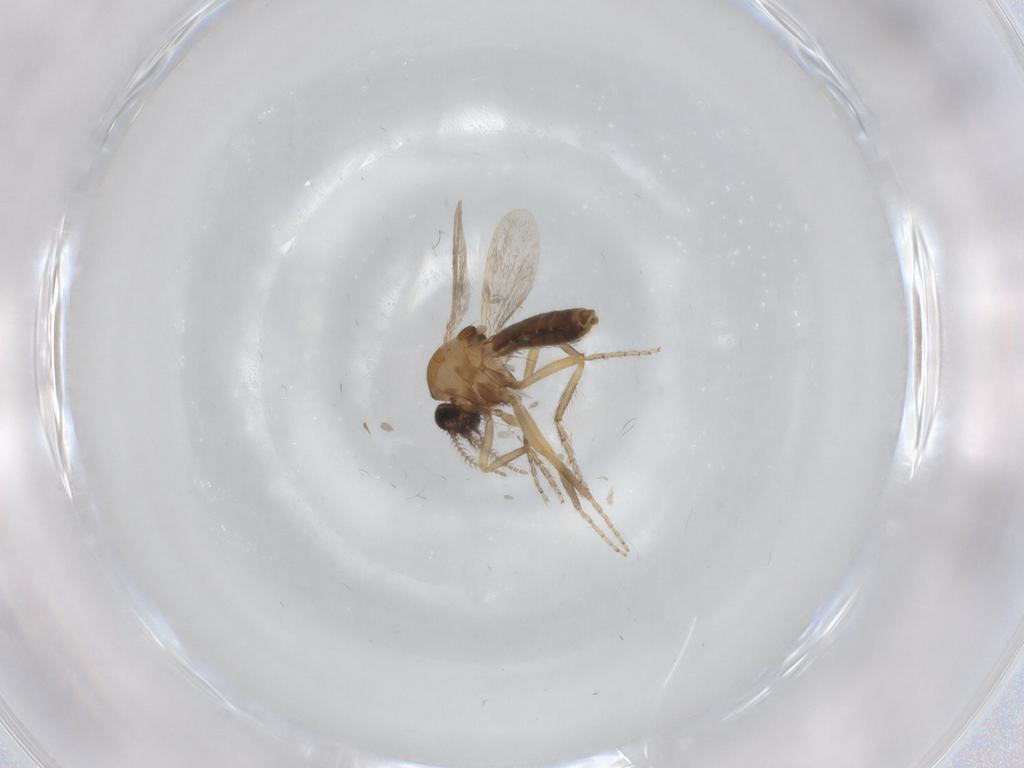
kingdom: Animalia
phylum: Arthropoda
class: Insecta
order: Diptera
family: Ceratopogonidae
